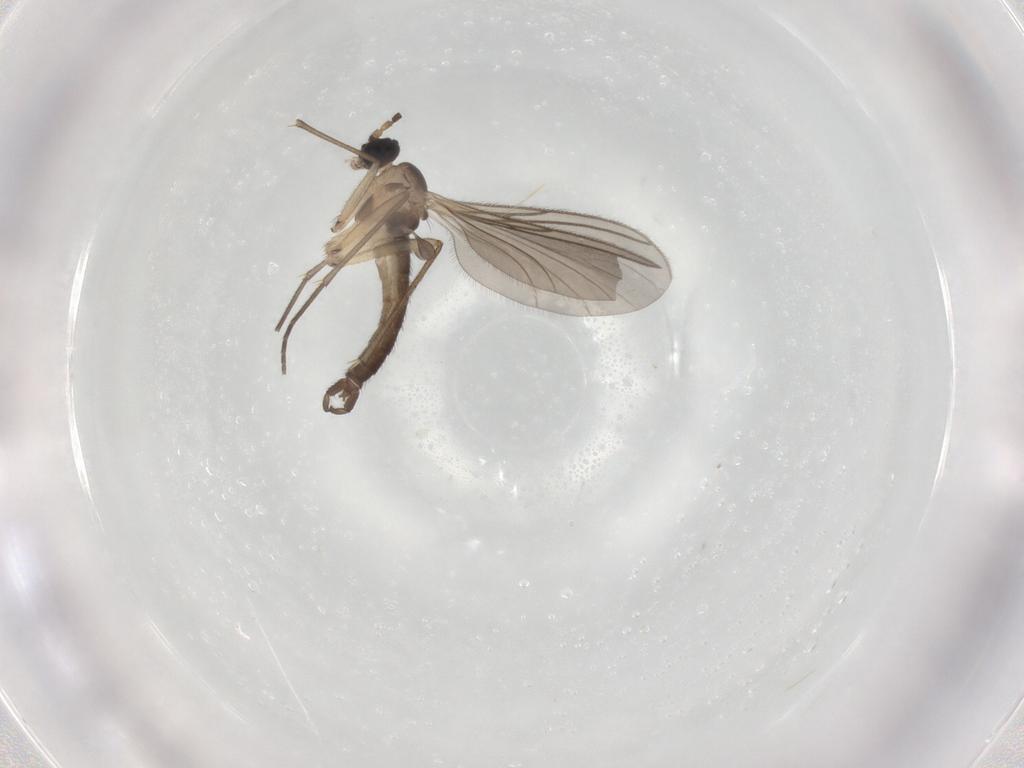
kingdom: Animalia
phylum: Arthropoda
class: Insecta
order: Diptera
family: Sciaridae
